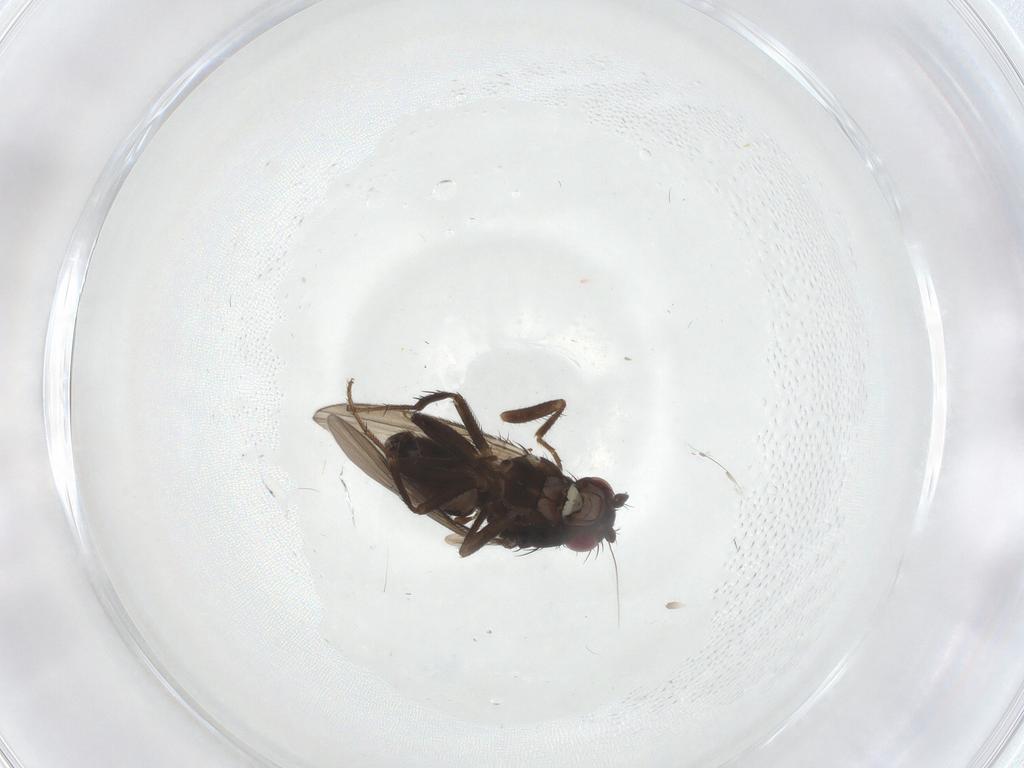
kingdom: Animalia
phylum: Arthropoda
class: Insecta
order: Diptera
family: Sphaeroceridae
